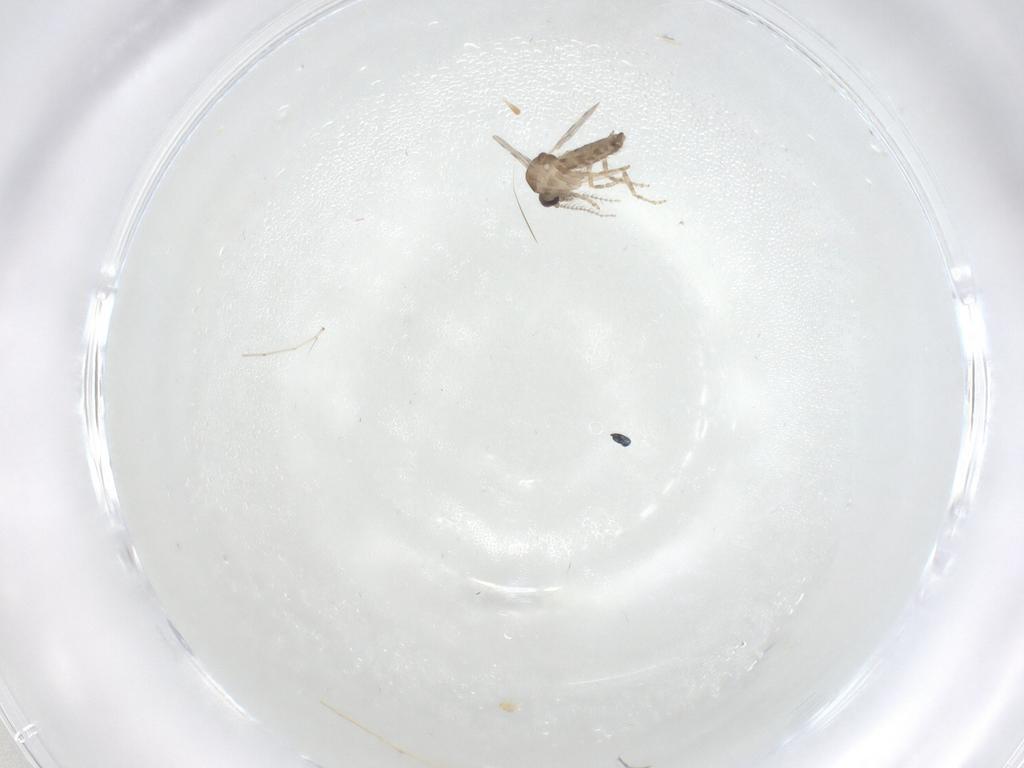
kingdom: Animalia
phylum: Arthropoda
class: Insecta
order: Diptera
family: Cecidomyiidae
